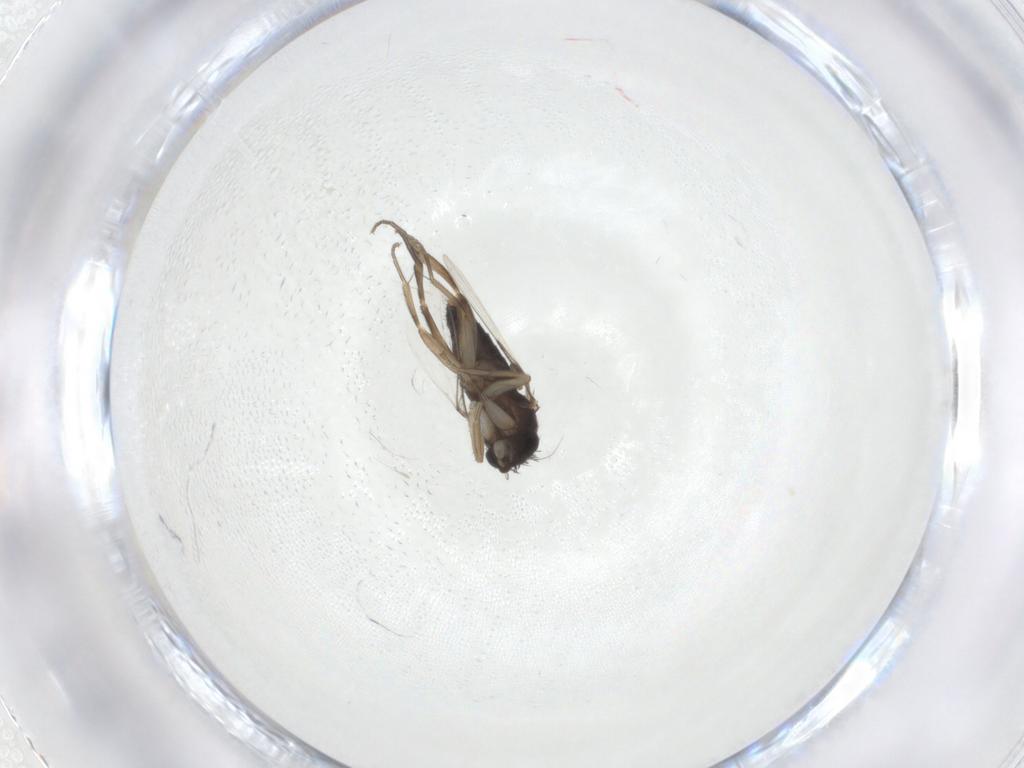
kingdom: Animalia
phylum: Arthropoda
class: Insecta
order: Diptera
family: Phoridae
